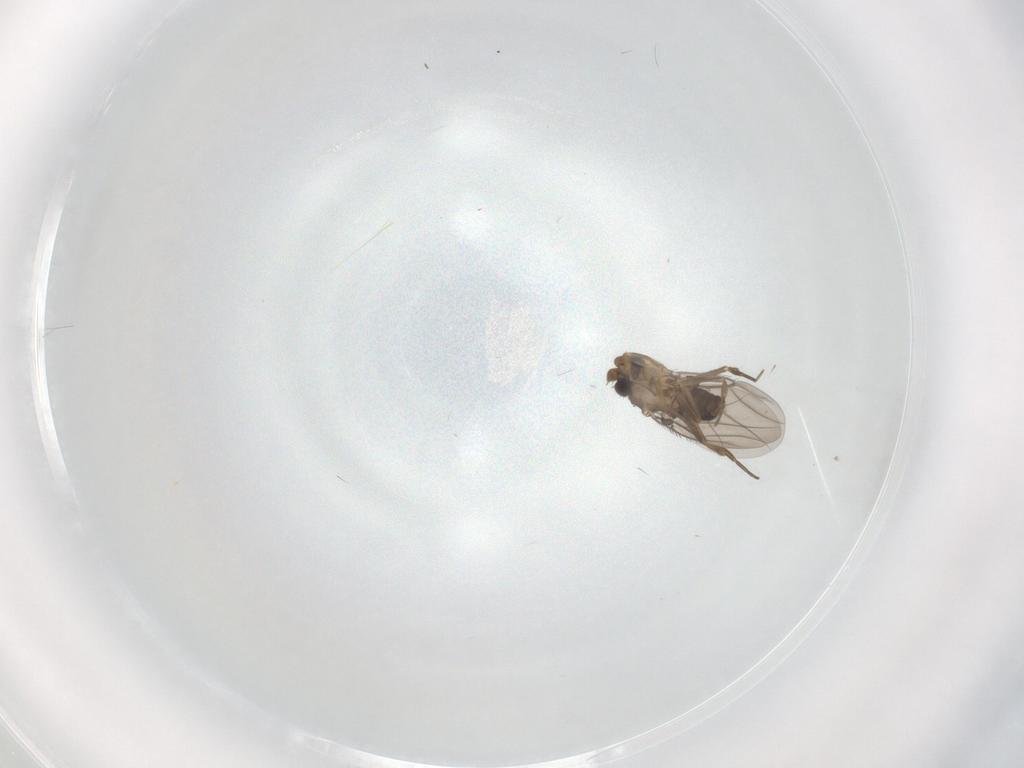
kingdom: Animalia
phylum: Arthropoda
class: Insecta
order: Diptera
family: Phoridae
